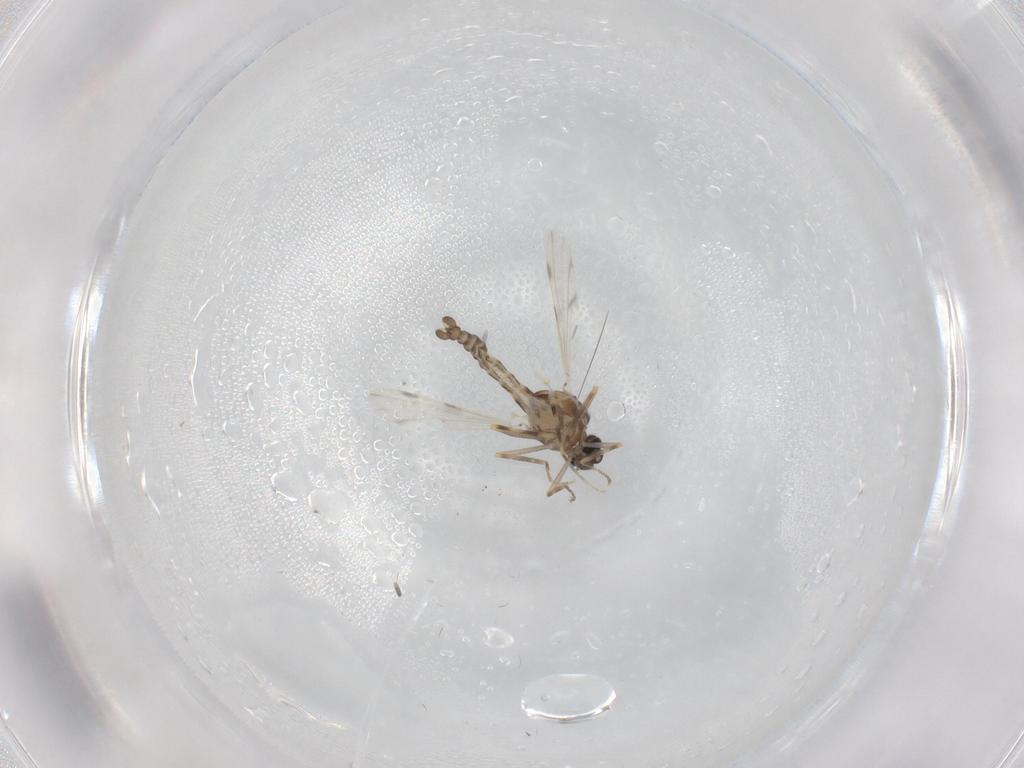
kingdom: Animalia
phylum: Arthropoda
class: Insecta
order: Diptera
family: Ceratopogonidae
